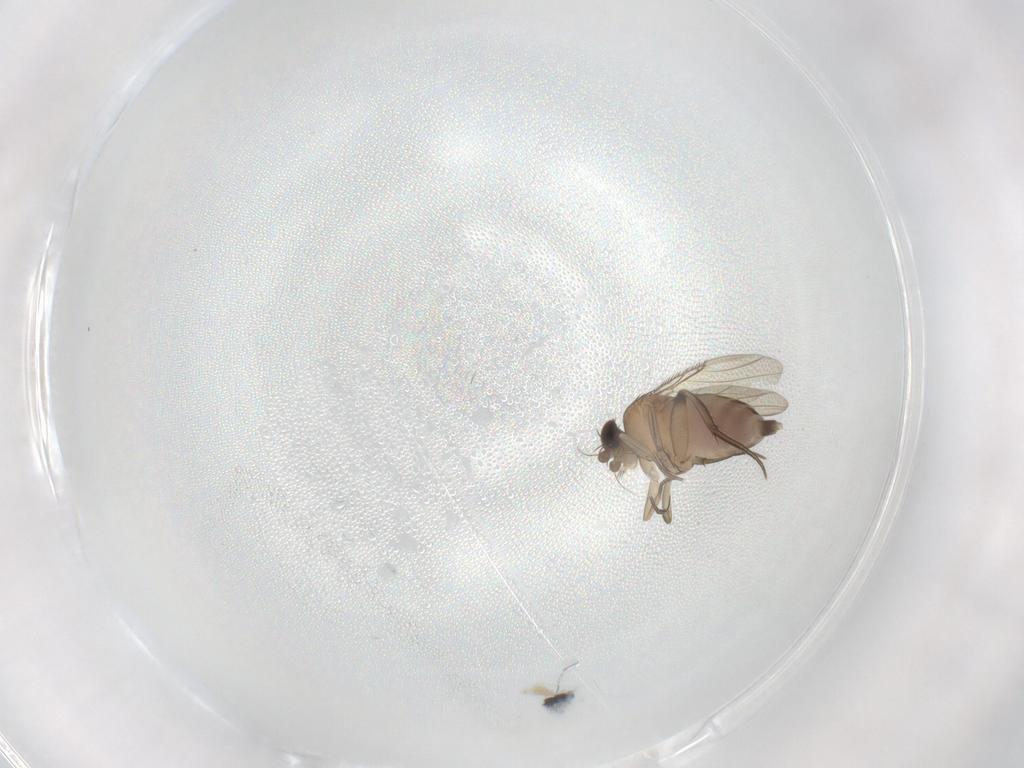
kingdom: Animalia
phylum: Arthropoda
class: Insecta
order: Diptera
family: Phoridae
